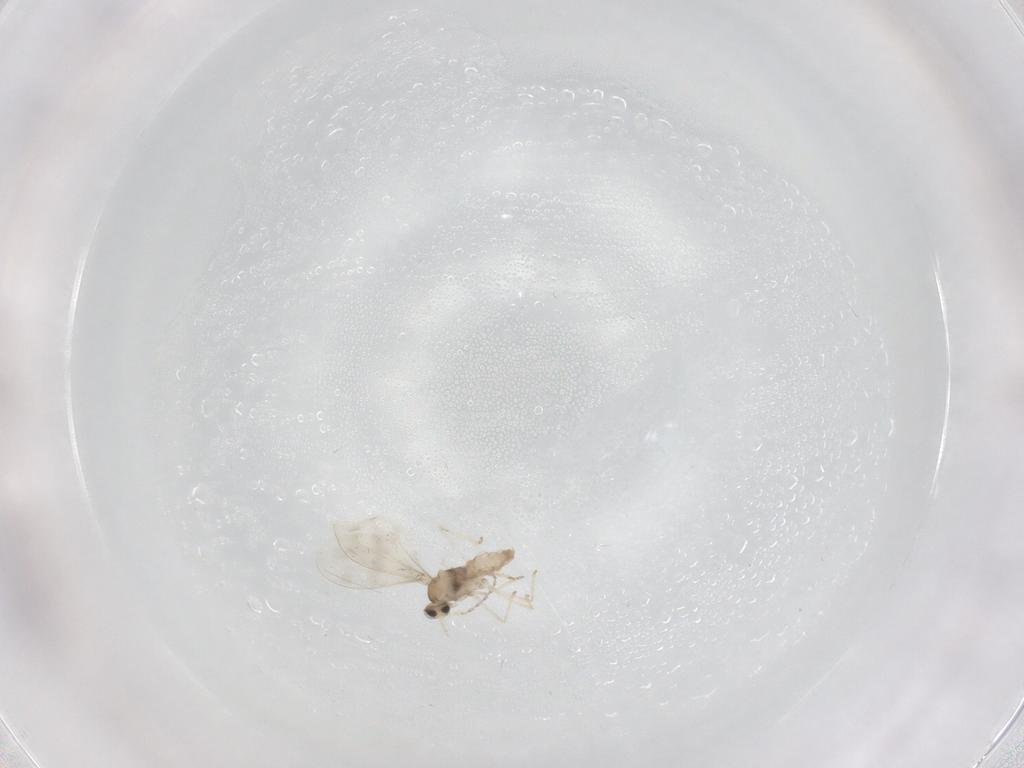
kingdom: Animalia
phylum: Arthropoda
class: Insecta
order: Diptera
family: Cecidomyiidae
